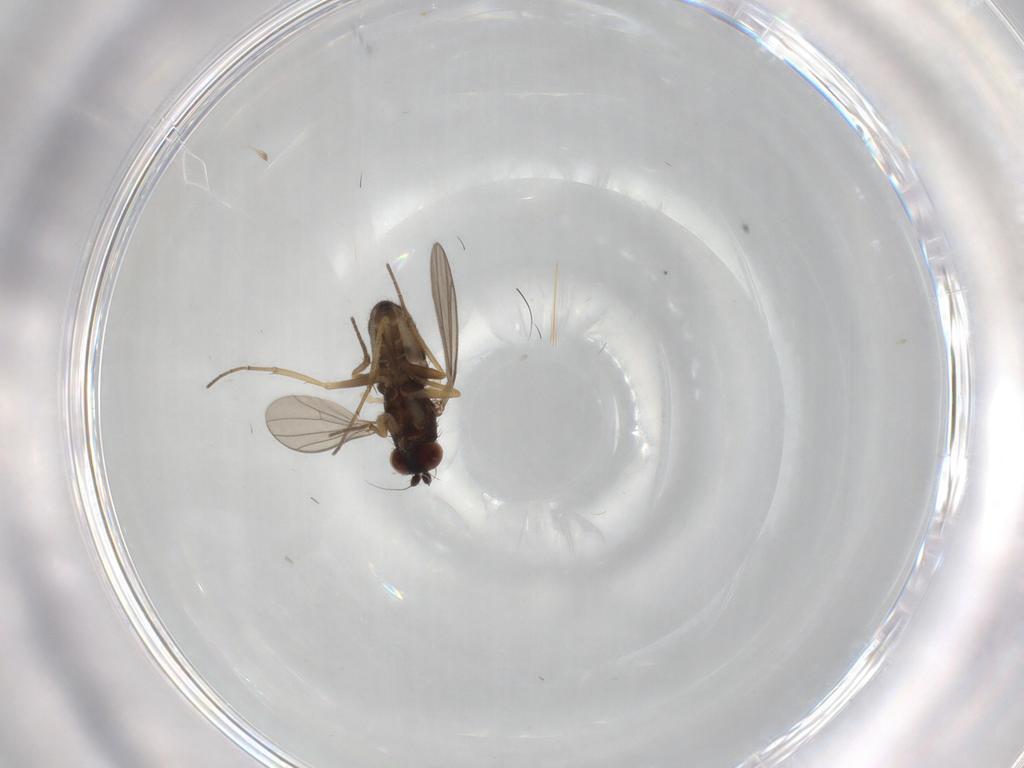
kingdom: Animalia
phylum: Arthropoda
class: Insecta
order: Diptera
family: Dolichopodidae
